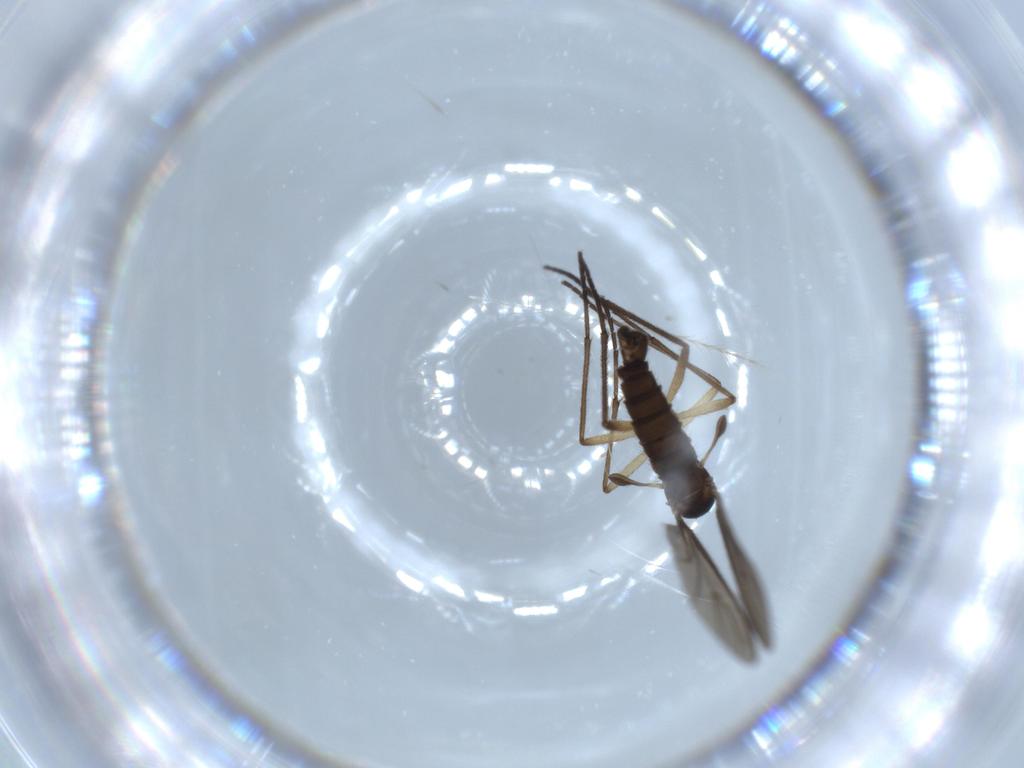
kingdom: Animalia
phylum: Arthropoda
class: Insecta
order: Diptera
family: Sciaridae
